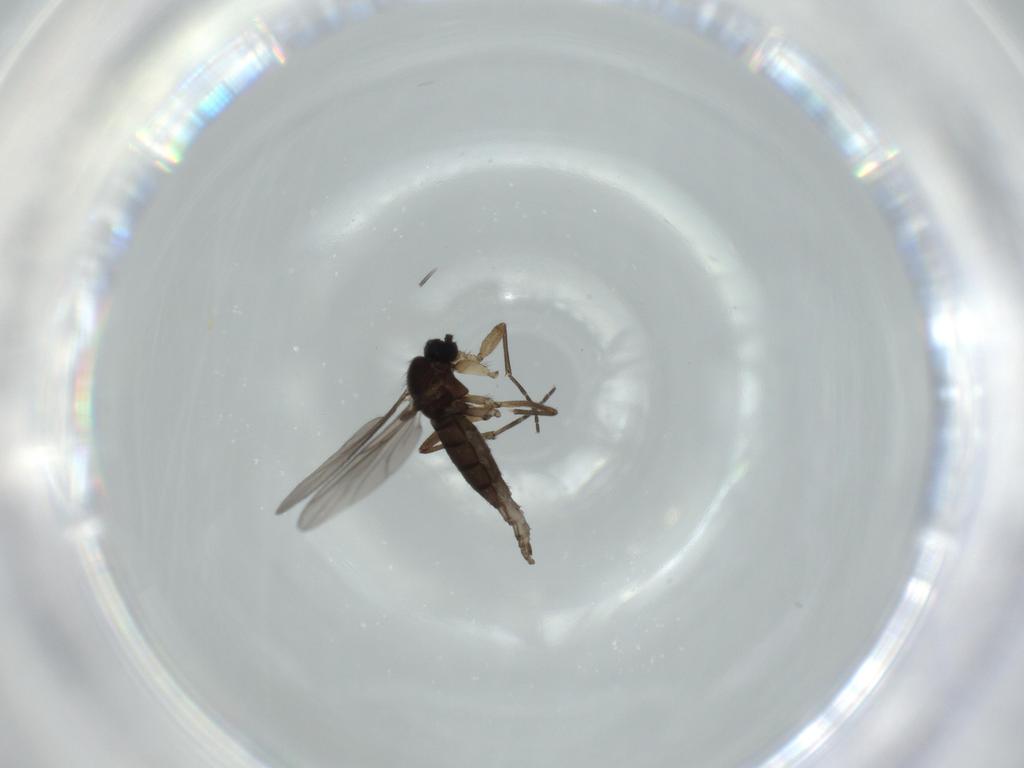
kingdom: Animalia
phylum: Arthropoda
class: Insecta
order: Diptera
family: Sciaridae
